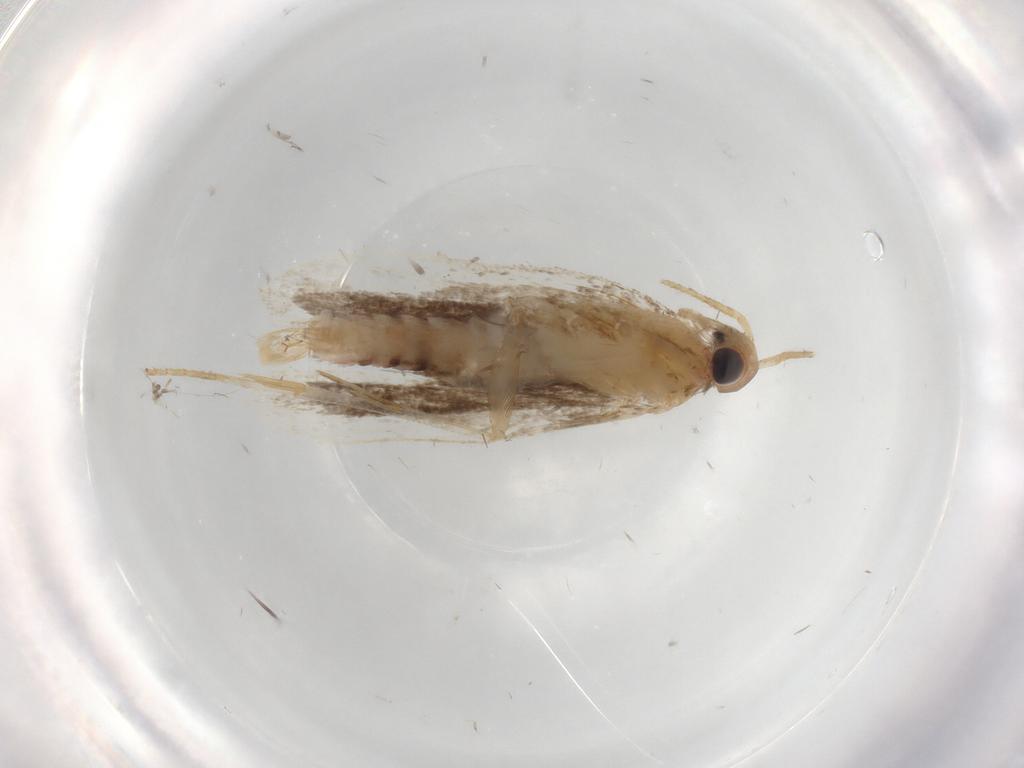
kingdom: Animalia
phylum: Arthropoda
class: Insecta
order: Lepidoptera
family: Gelechiidae
